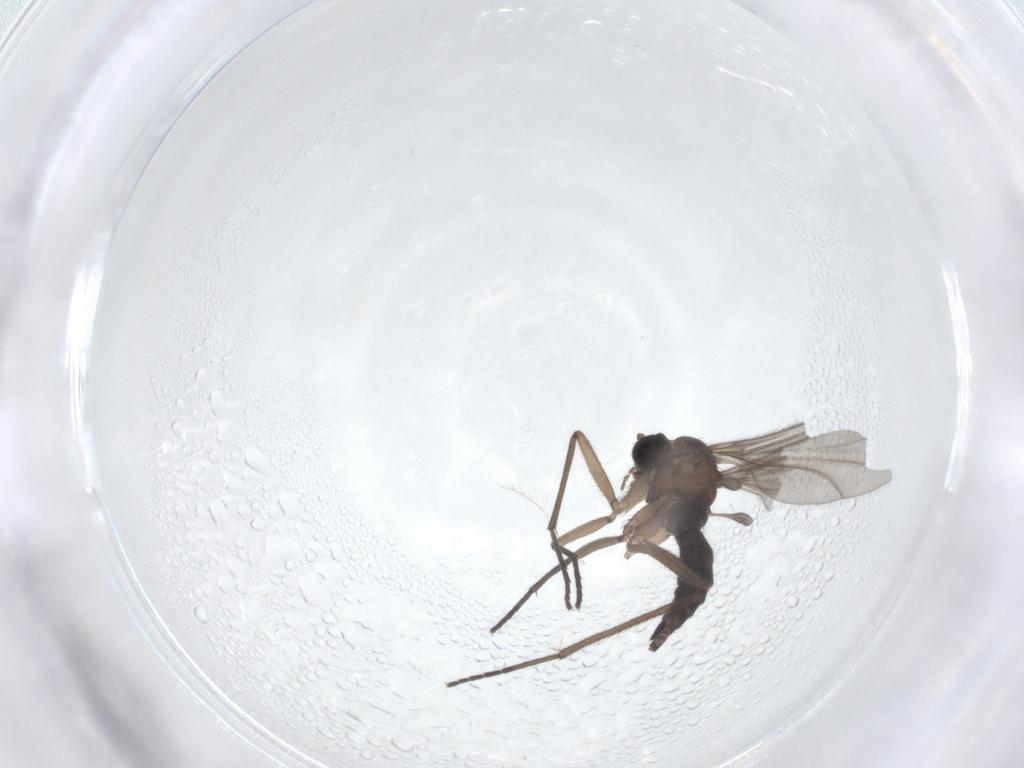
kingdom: Animalia
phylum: Arthropoda
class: Insecta
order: Diptera
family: Sciaridae
